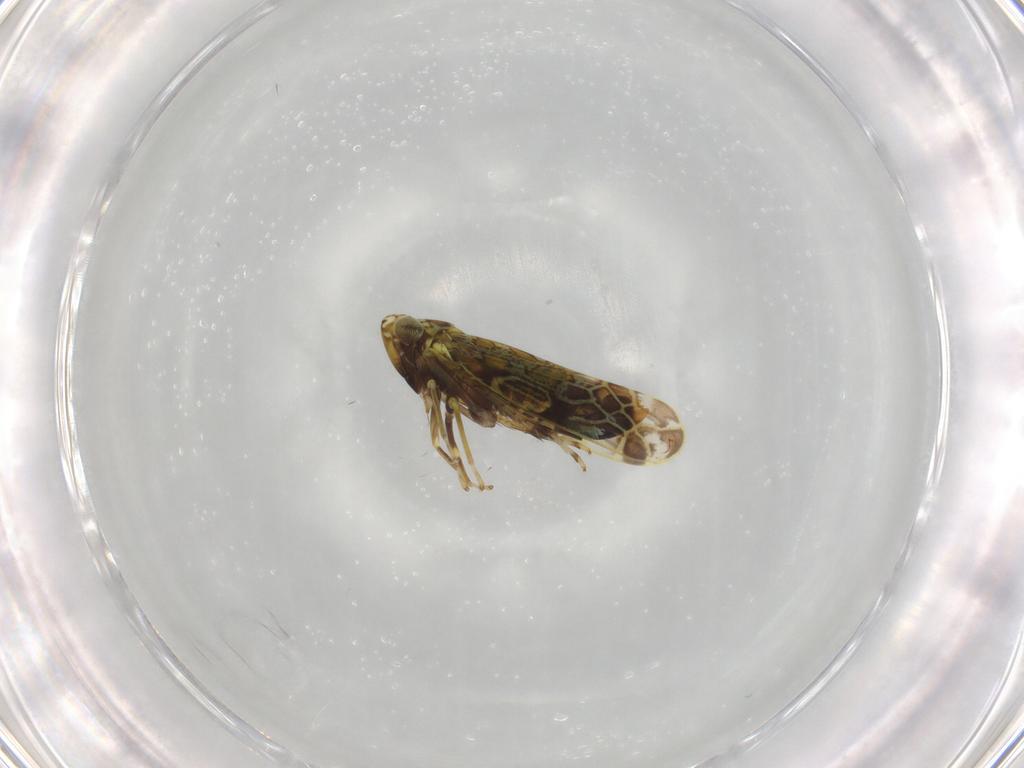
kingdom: Animalia
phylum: Arthropoda
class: Insecta
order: Hemiptera
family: Cicadellidae
